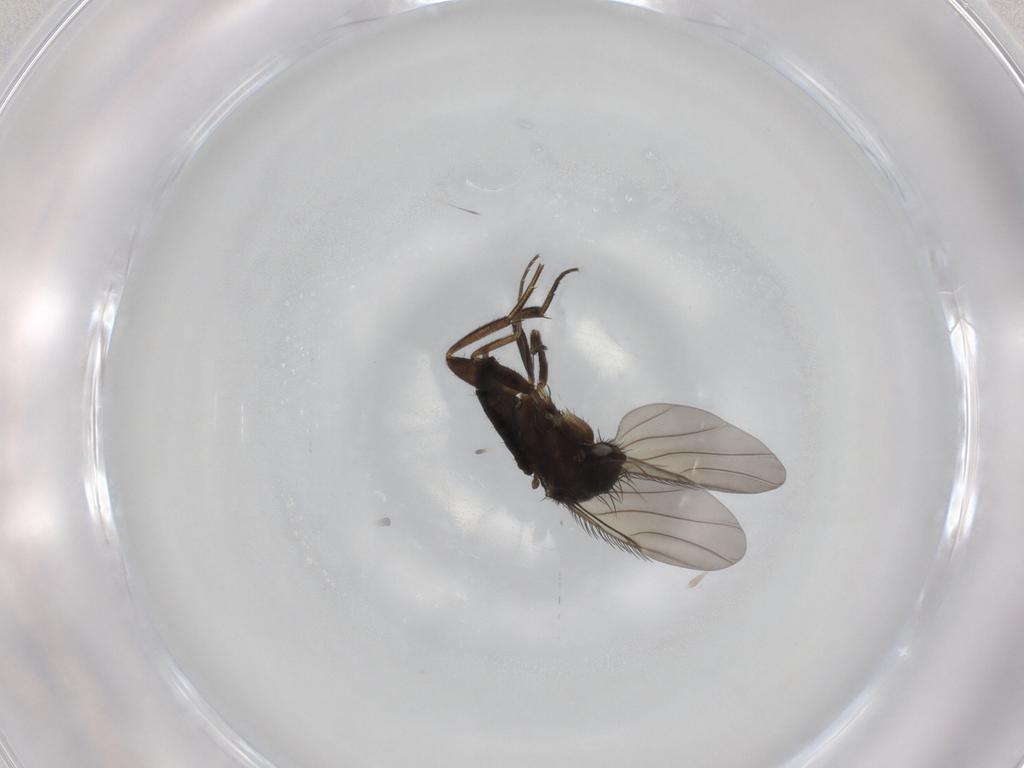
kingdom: Animalia
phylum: Arthropoda
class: Insecta
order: Diptera
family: Phoridae
